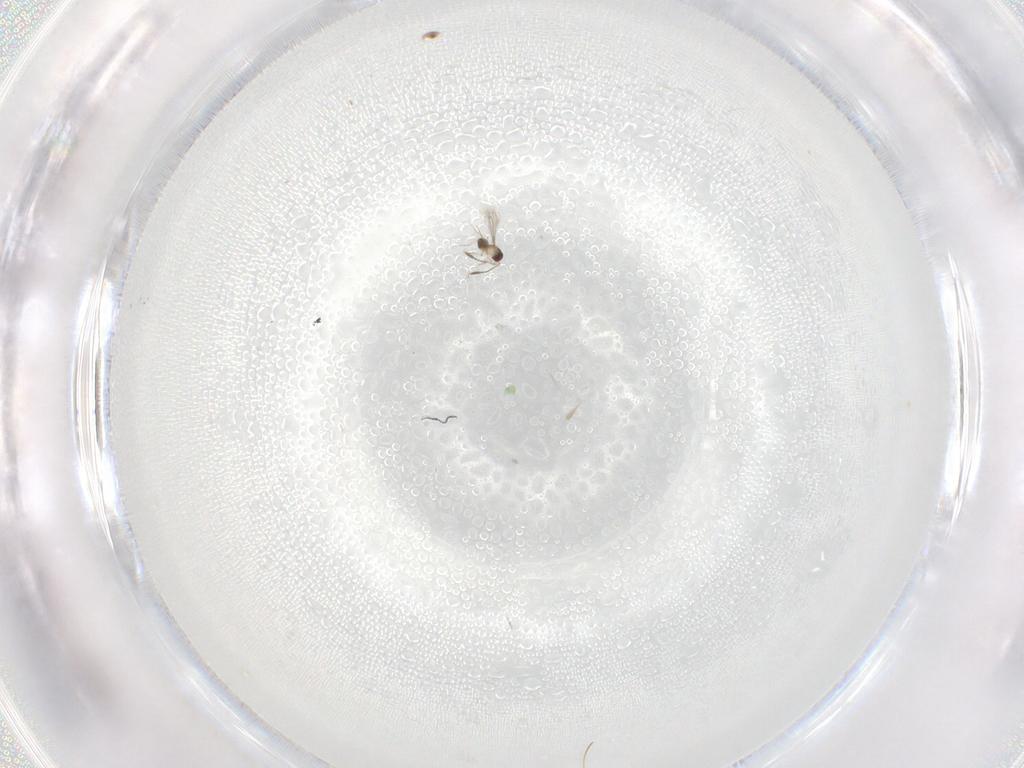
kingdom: Animalia
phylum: Arthropoda
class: Insecta
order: Hymenoptera
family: Mymaridae
